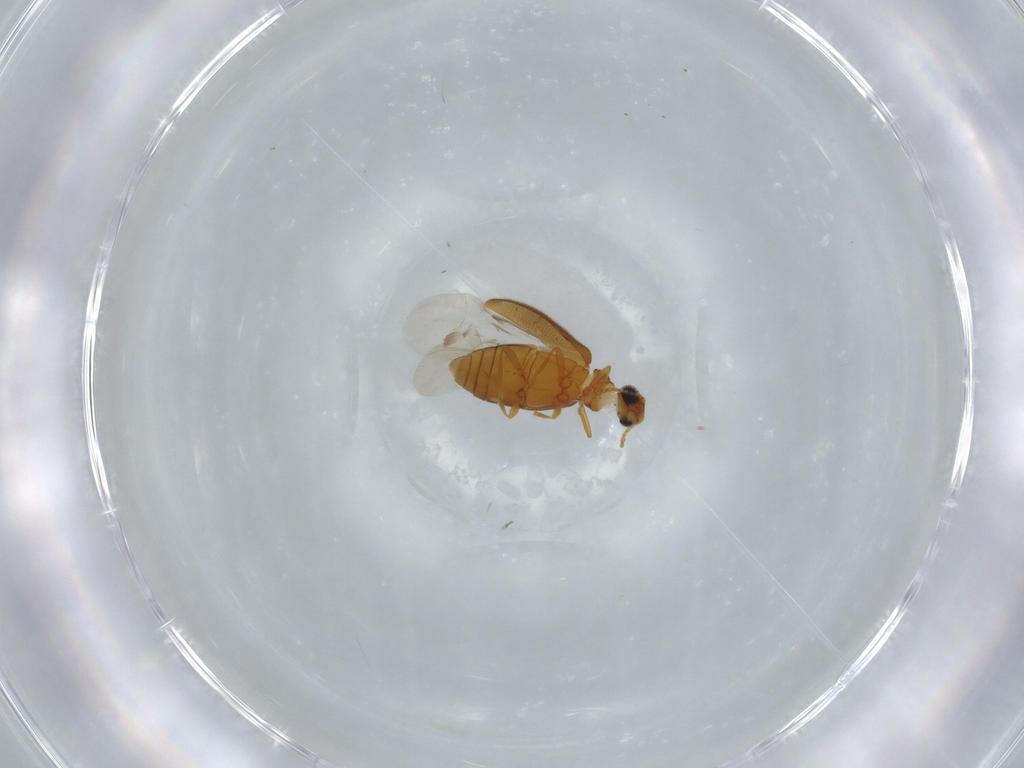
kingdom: Animalia
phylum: Arthropoda
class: Insecta
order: Coleoptera
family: Aderidae
